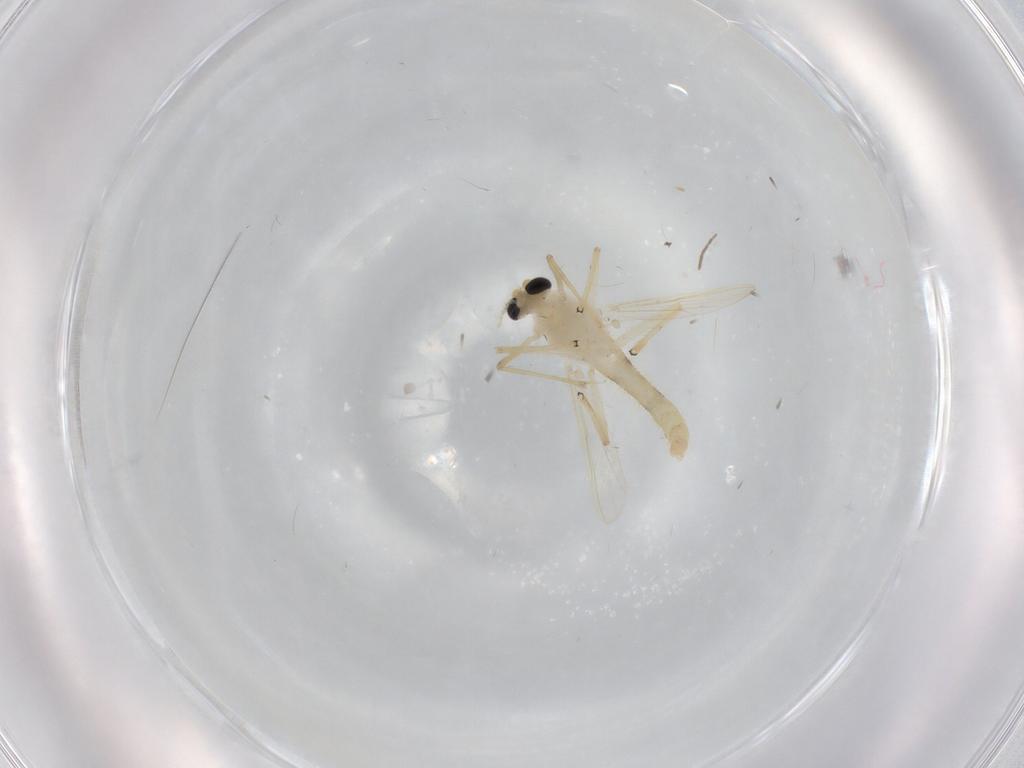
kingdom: Animalia
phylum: Arthropoda
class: Insecta
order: Diptera
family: Chironomidae
